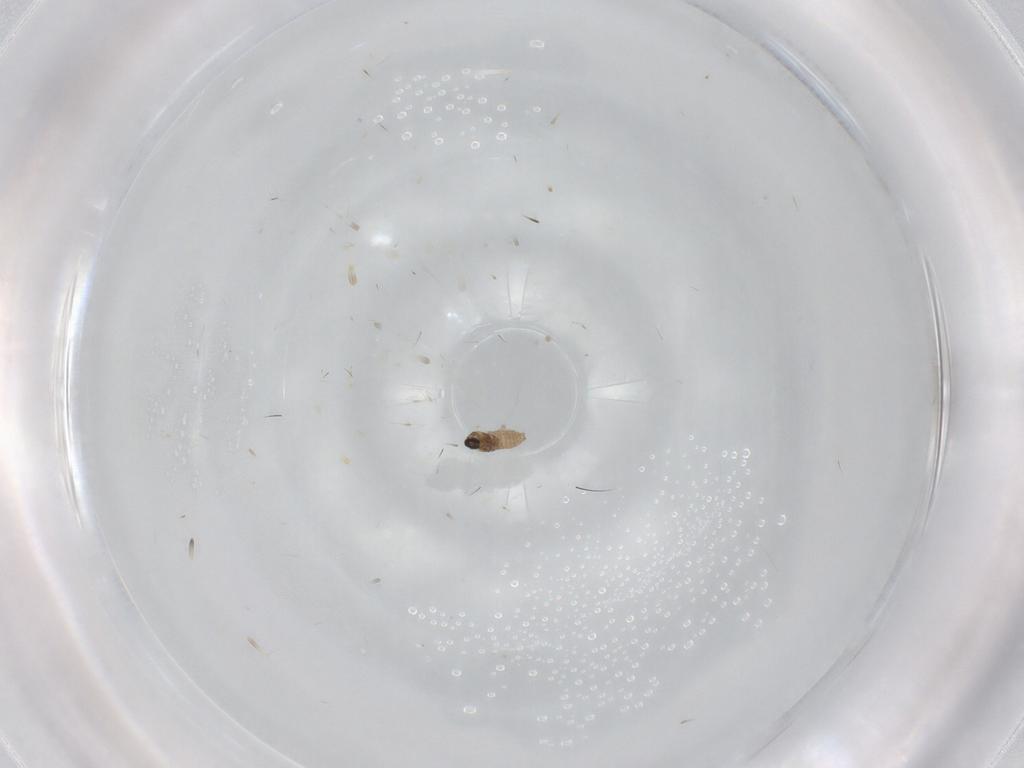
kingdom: Animalia
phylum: Arthropoda
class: Insecta
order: Diptera
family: Cecidomyiidae
